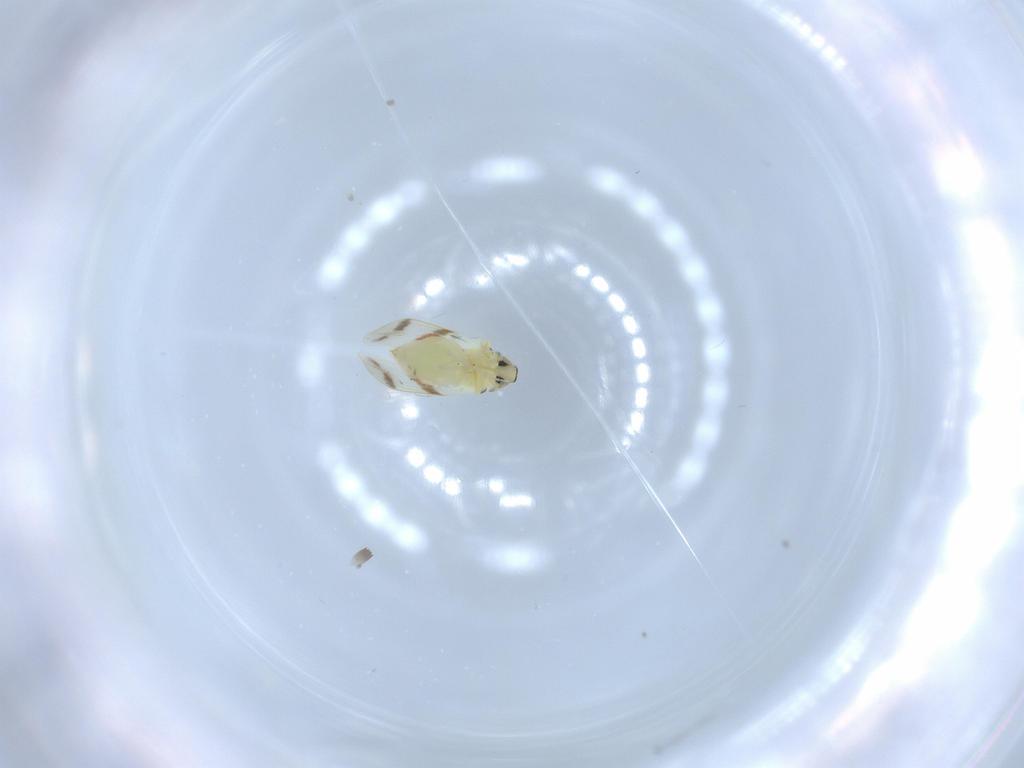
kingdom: Animalia
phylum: Arthropoda
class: Insecta
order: Hemiptera
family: Aleyrodidae
